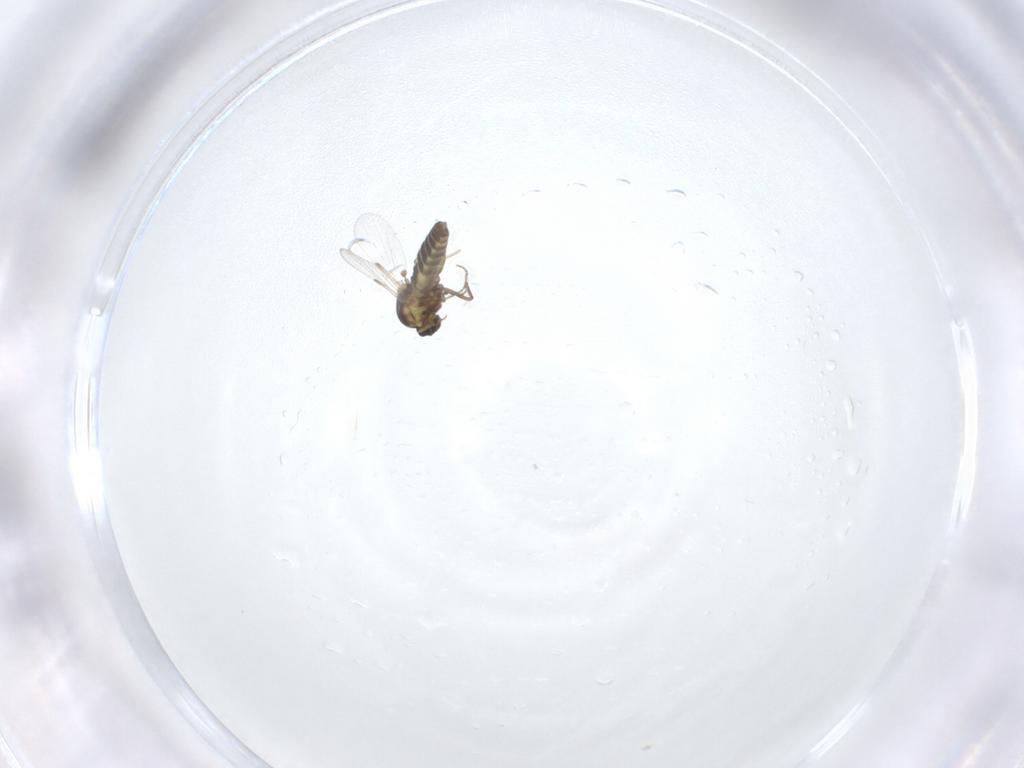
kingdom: Animalia
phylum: Arthropoda
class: Insecta
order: Diptera
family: Ceratopogonidae
